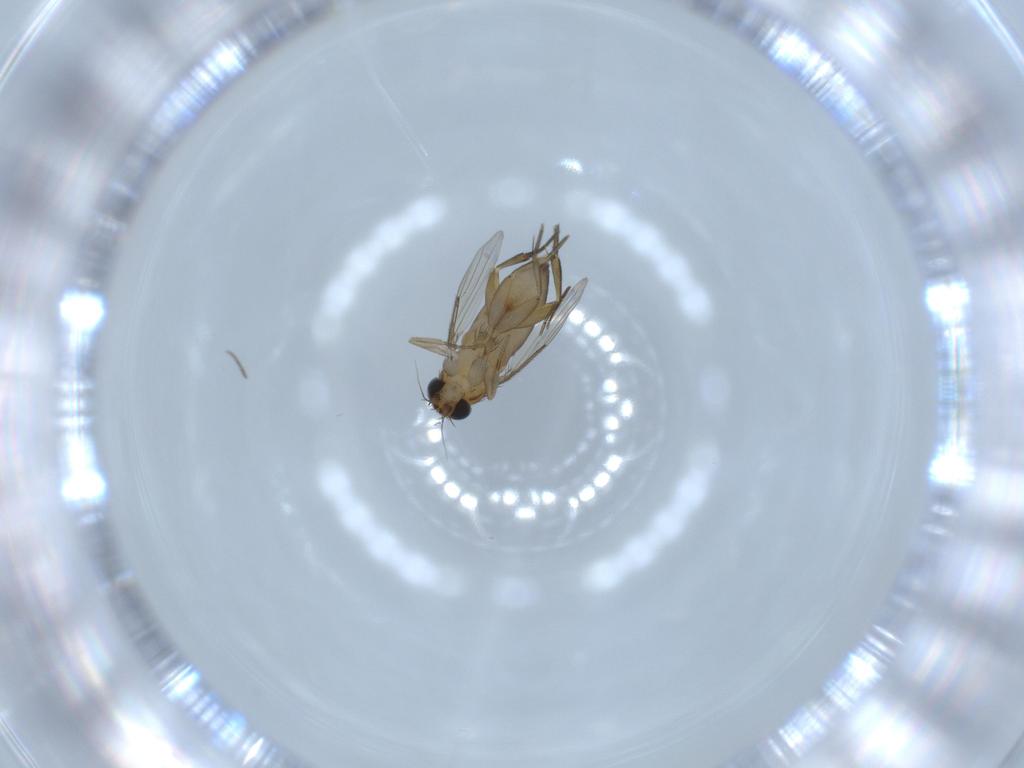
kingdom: Animalia
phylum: Arthropoda
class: Insecta
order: Diptera
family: Phoridae
